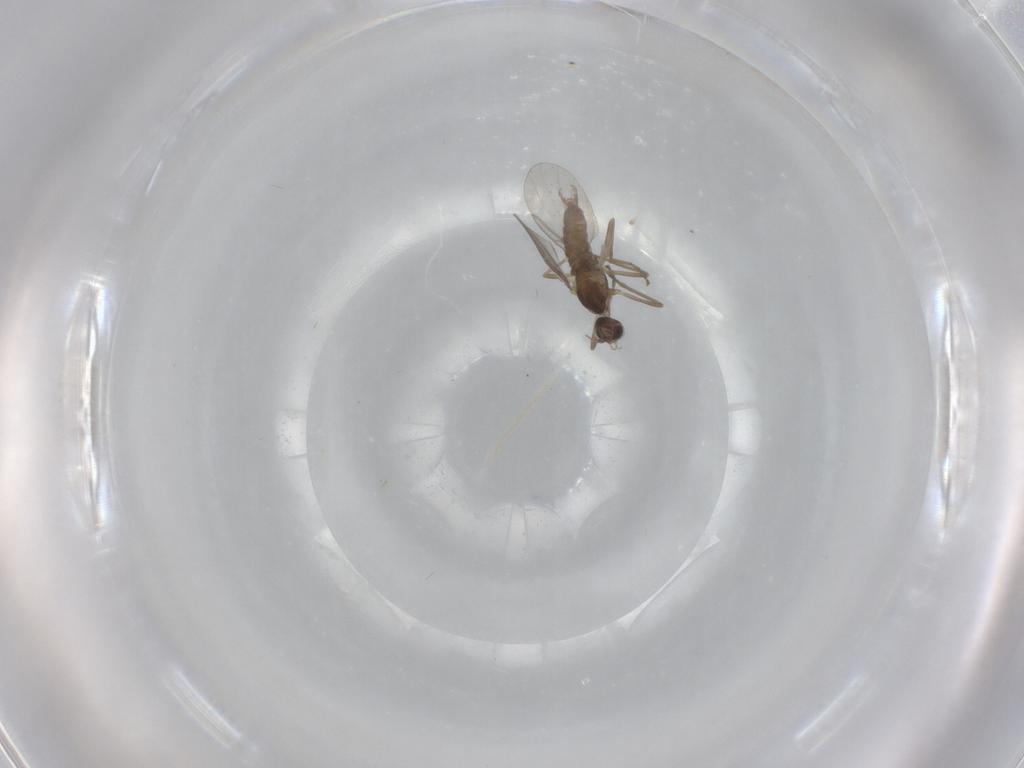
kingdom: Animalia
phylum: Arthropoda
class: Insecta
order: Diptera
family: Cecidomyiidae
